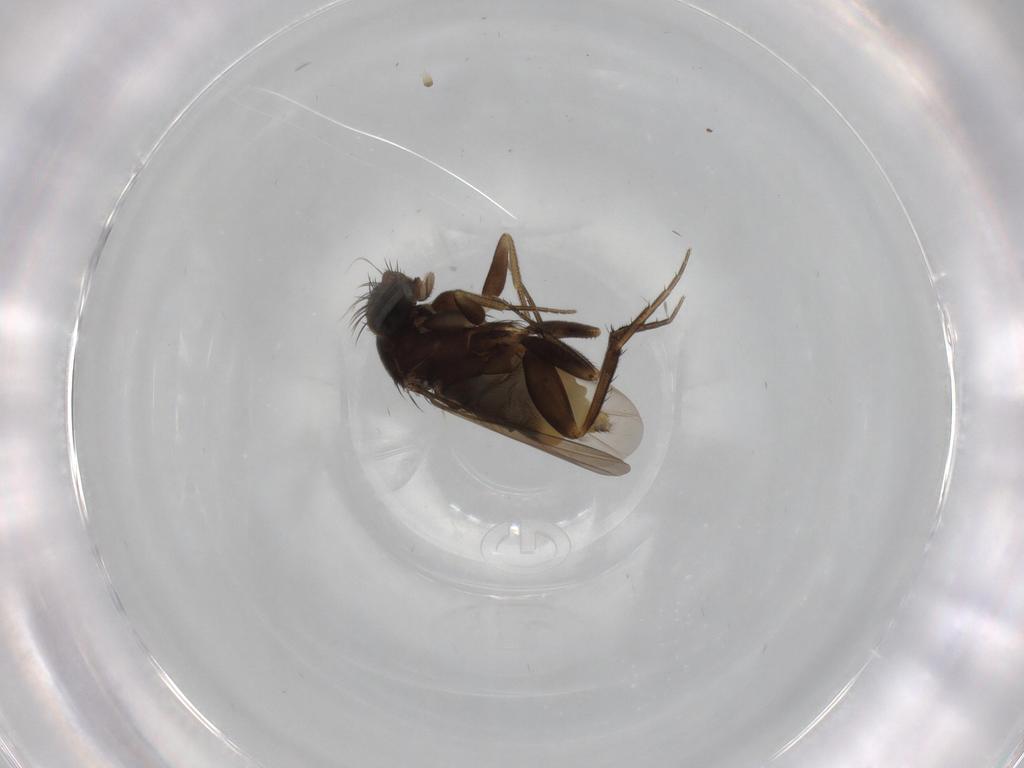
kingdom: Animalia
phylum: Arthropoda
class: Insecta
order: Diptera
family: Phoridae
